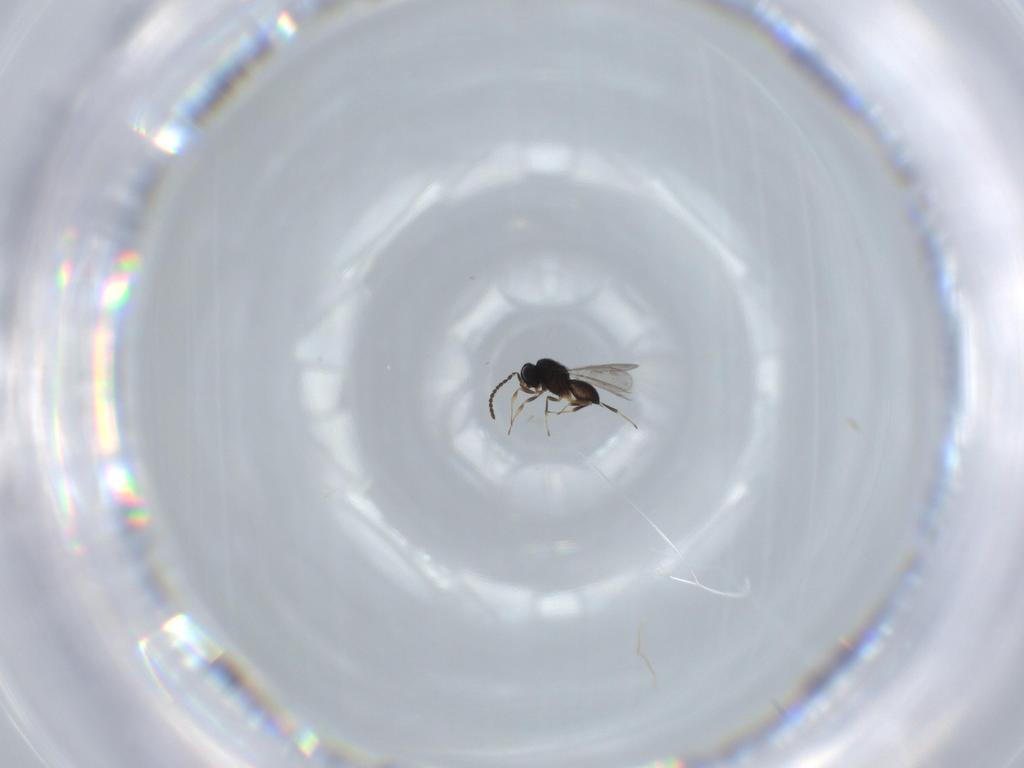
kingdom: Animalia
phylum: Arthropoda
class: Insecta
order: Hymenoptera
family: Scelionidae
